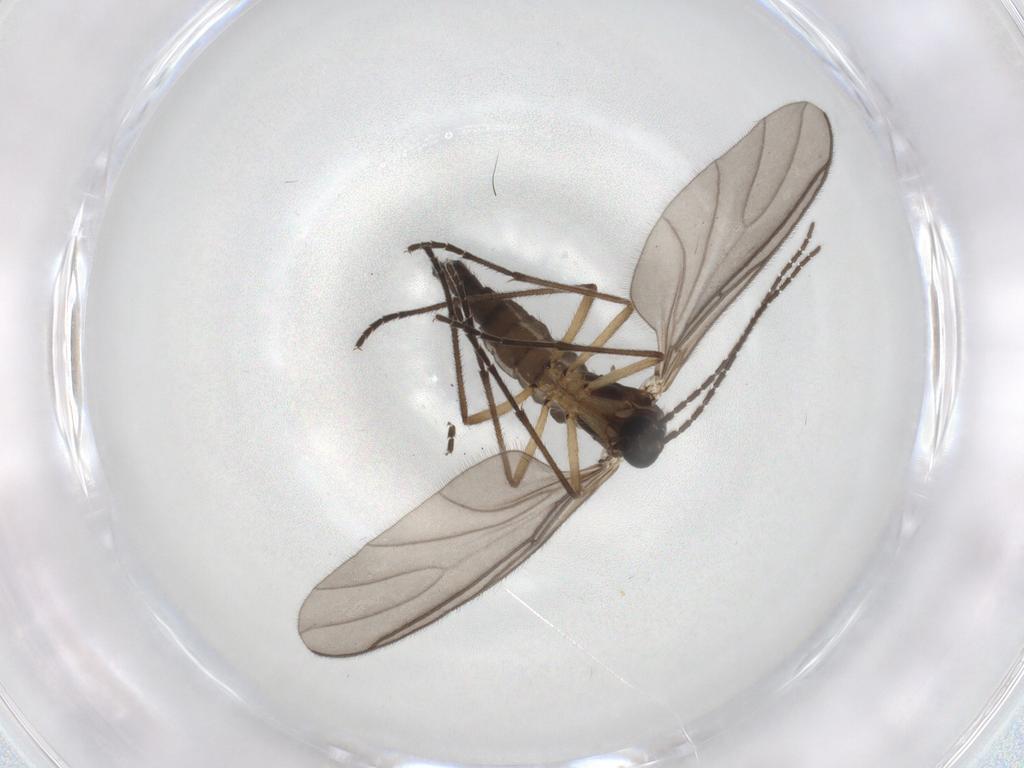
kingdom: Animalia
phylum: Arthropoda
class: Insecta
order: Diptera
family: Sciaridae
